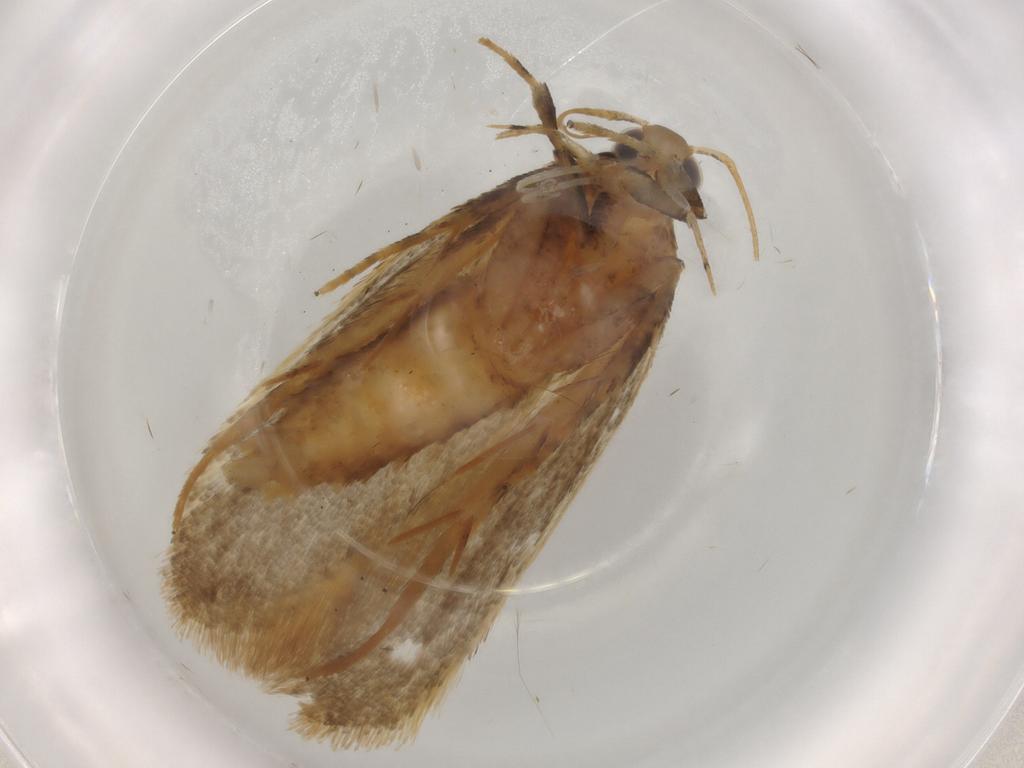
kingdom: Animalia
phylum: Arthropoda
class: Insecta
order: Lepidoptera
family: Gelechiidae
